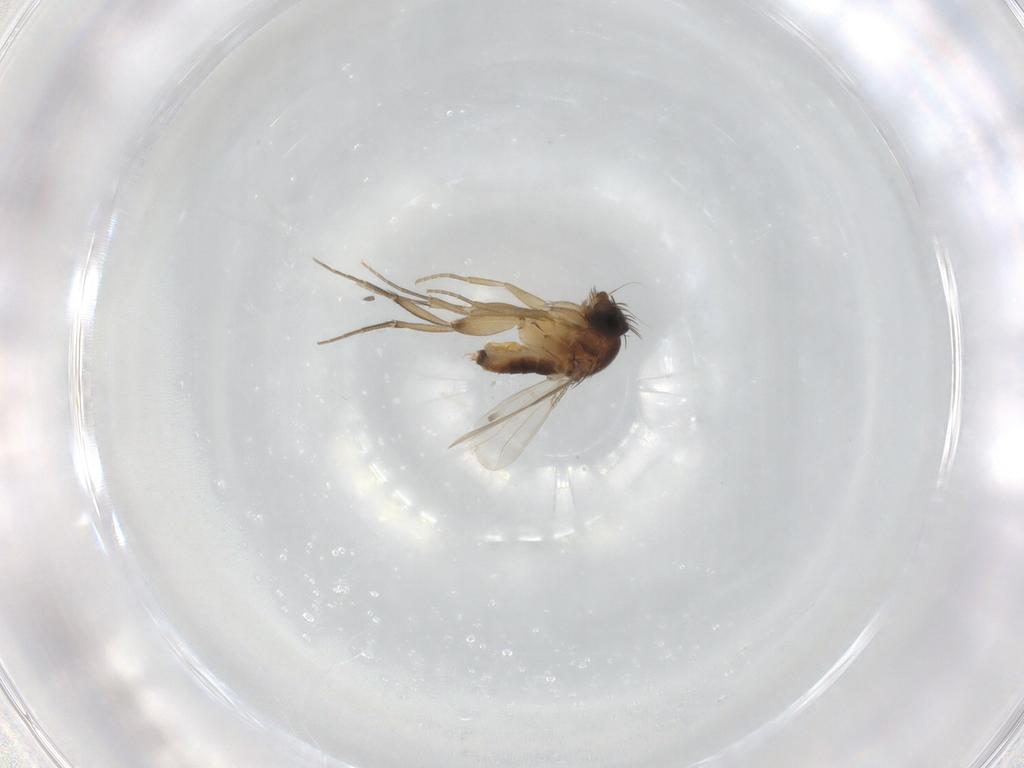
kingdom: Animalia
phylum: Arthropoda
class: Insecta
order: Diptera
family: Phoridae
